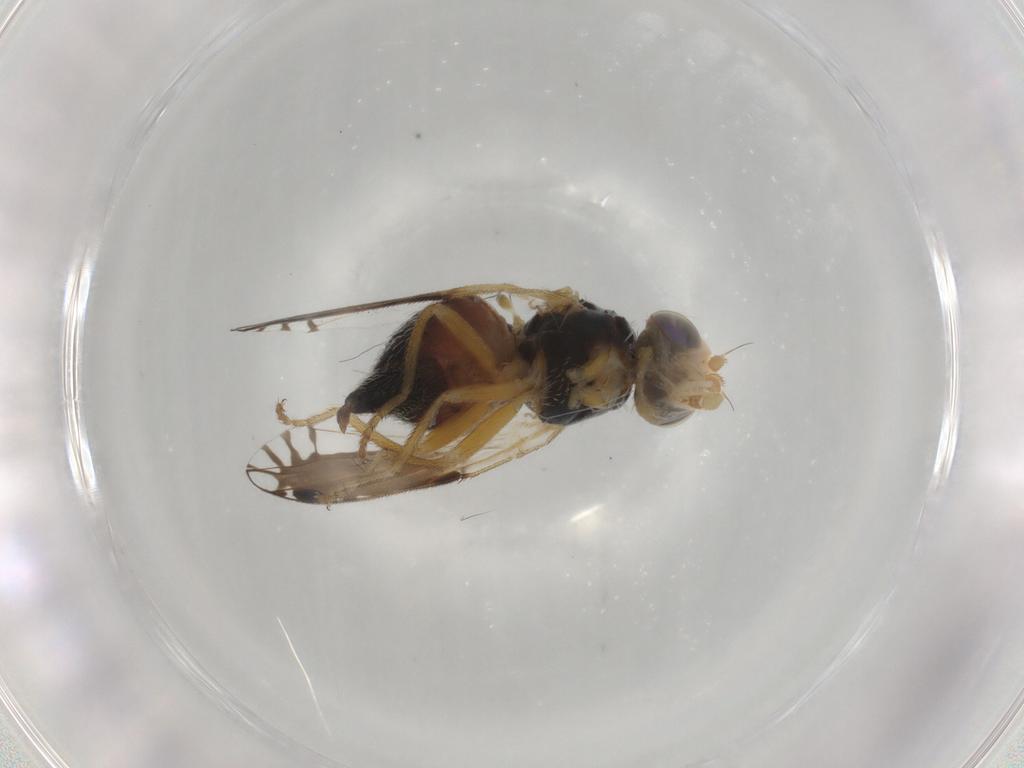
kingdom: Animalia
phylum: Arthropoda
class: Insecta
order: Diptera
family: Tephritidae
